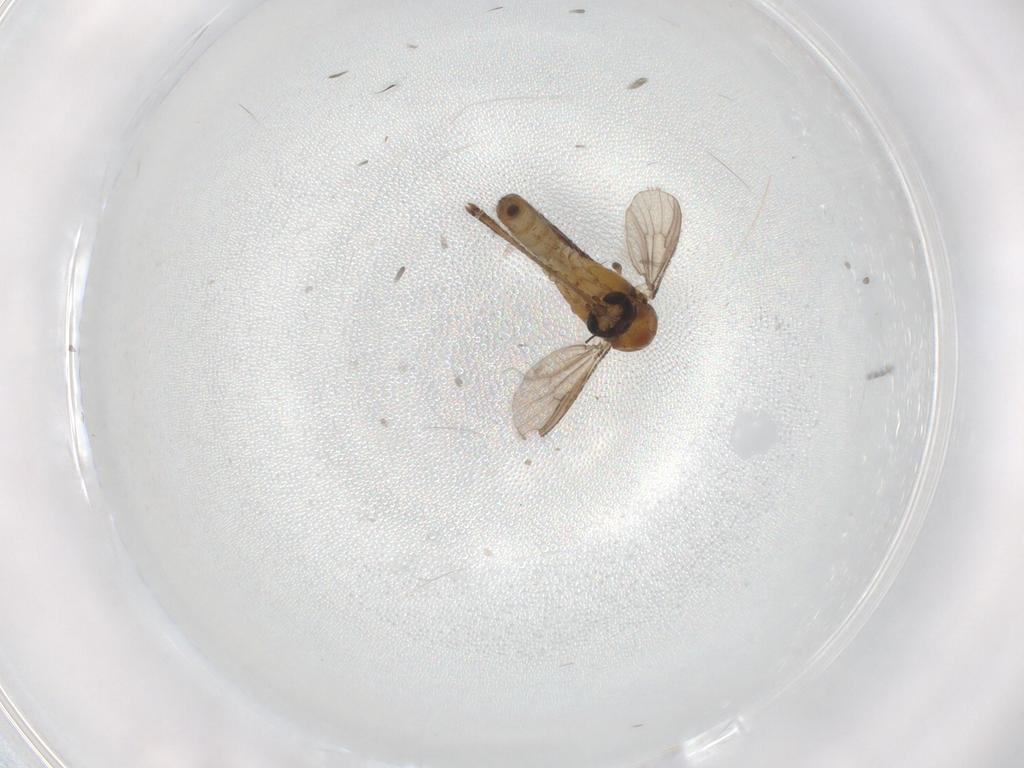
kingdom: Animalia
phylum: Arthropoda
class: Insecta
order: Diptera
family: Culicidae
